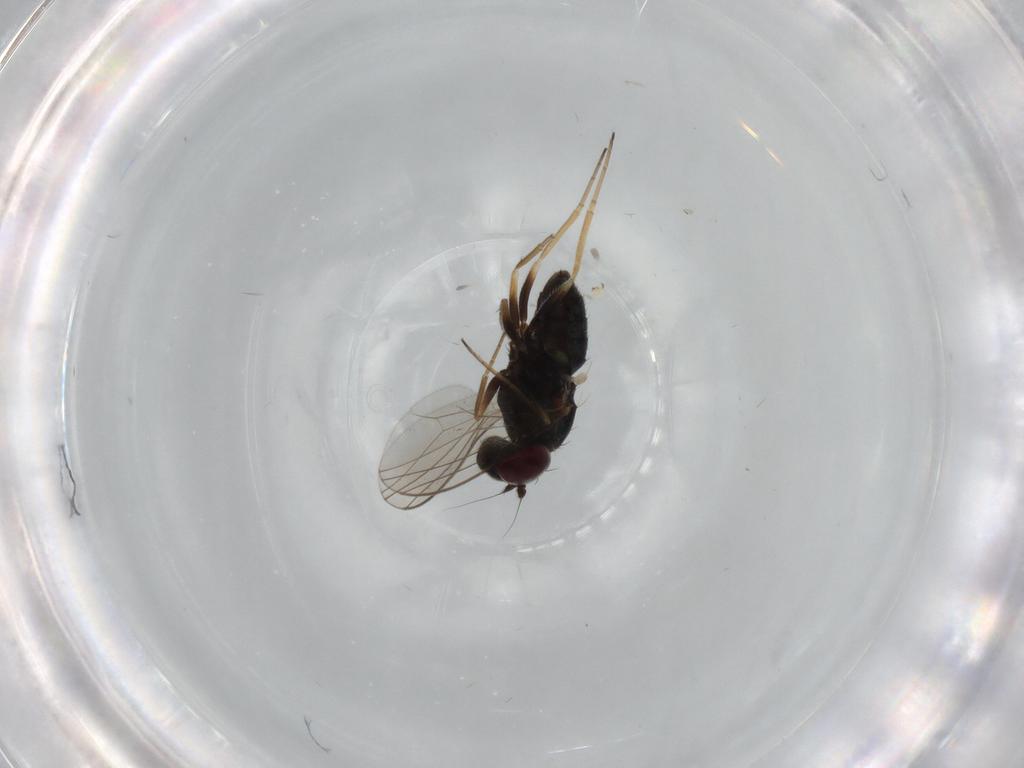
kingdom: Animalia
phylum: Arthropoda
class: Insecta
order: Diptera
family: Dolichopodidae
